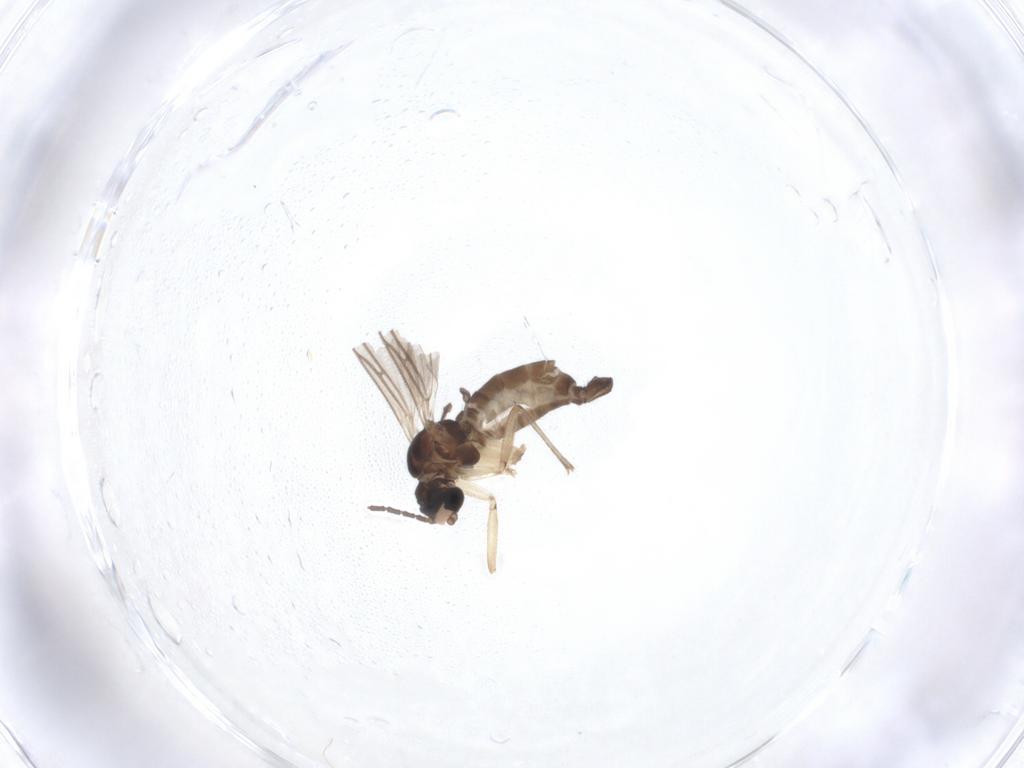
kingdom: Animalia
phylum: Arthropoda
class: Insecta
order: Diptera
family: Sciaridae
